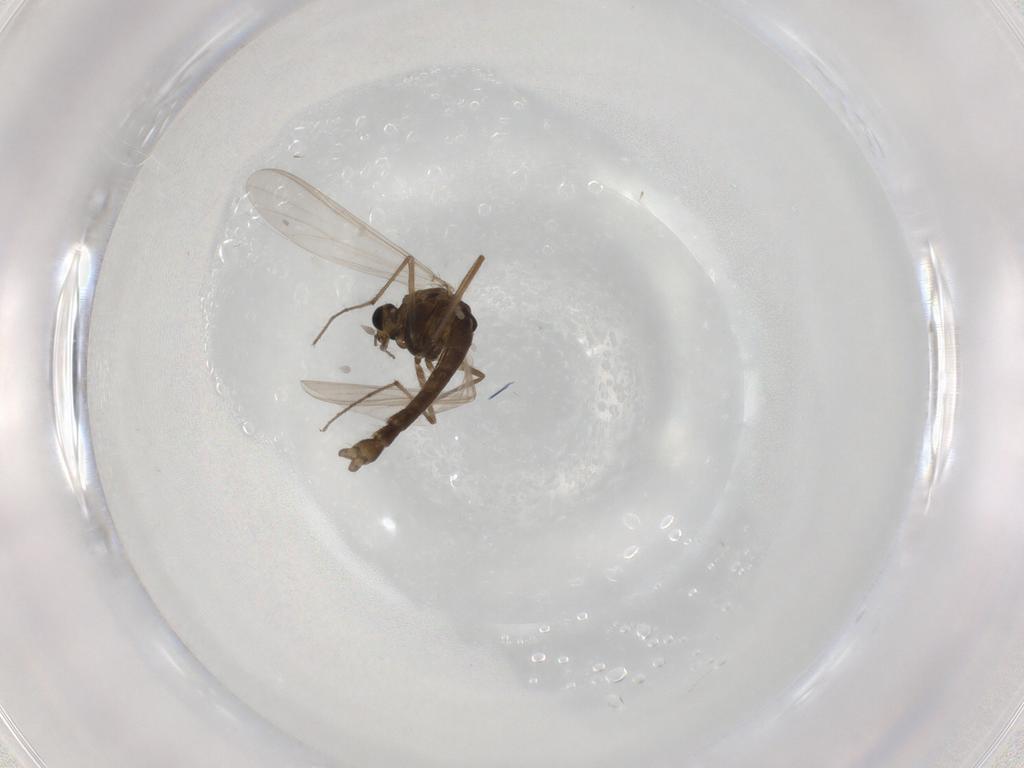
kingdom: Animalia
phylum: Arthropoda
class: Insecta
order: Diptera
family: Chironomidae
